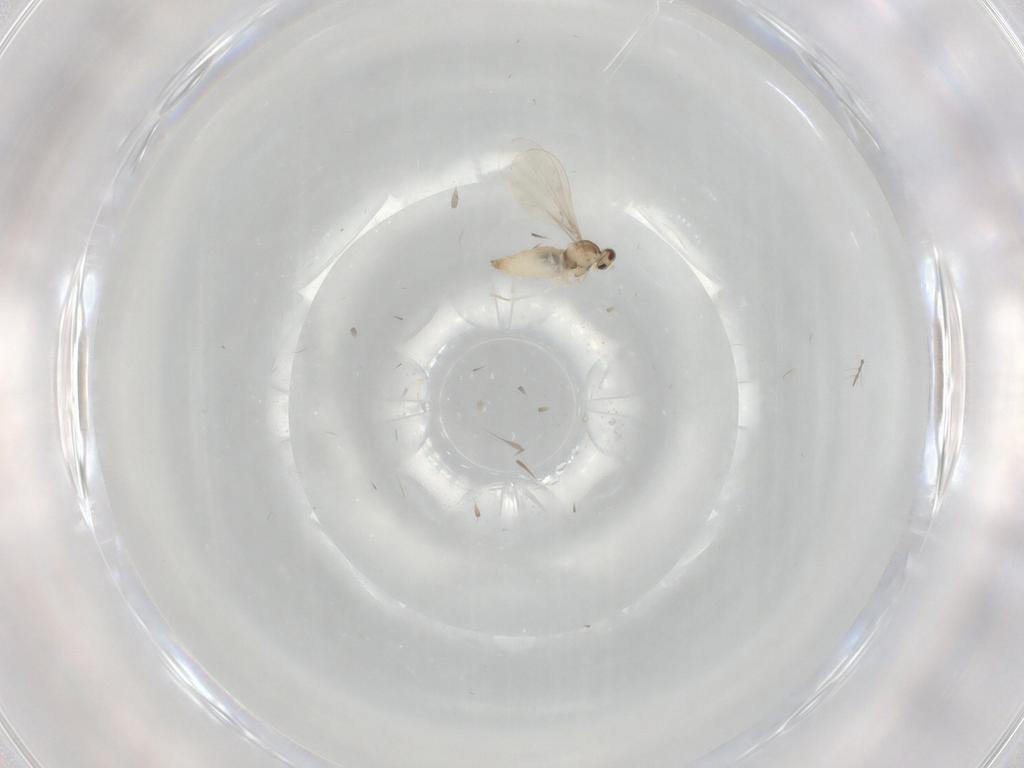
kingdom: Animalia
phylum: Arthropoda
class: Insecta
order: Diptera
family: Cecidomyiidae
